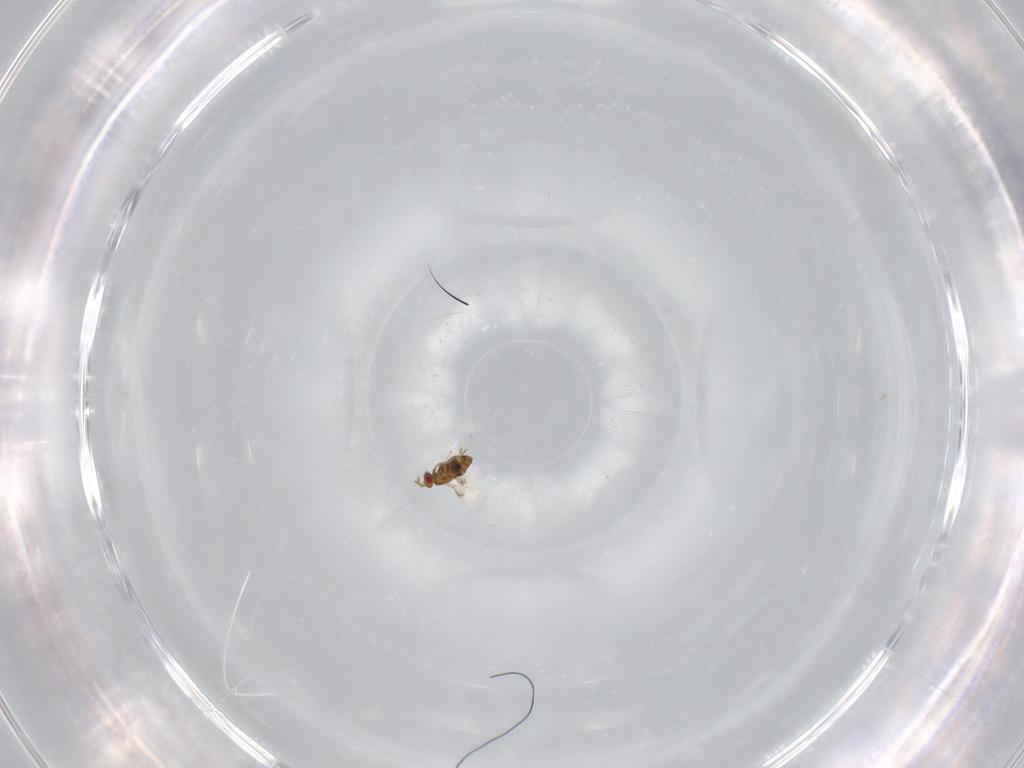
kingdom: Animalia
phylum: Arthropoda
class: Insecta
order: Hymenoptera
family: Trichogrammatidae
